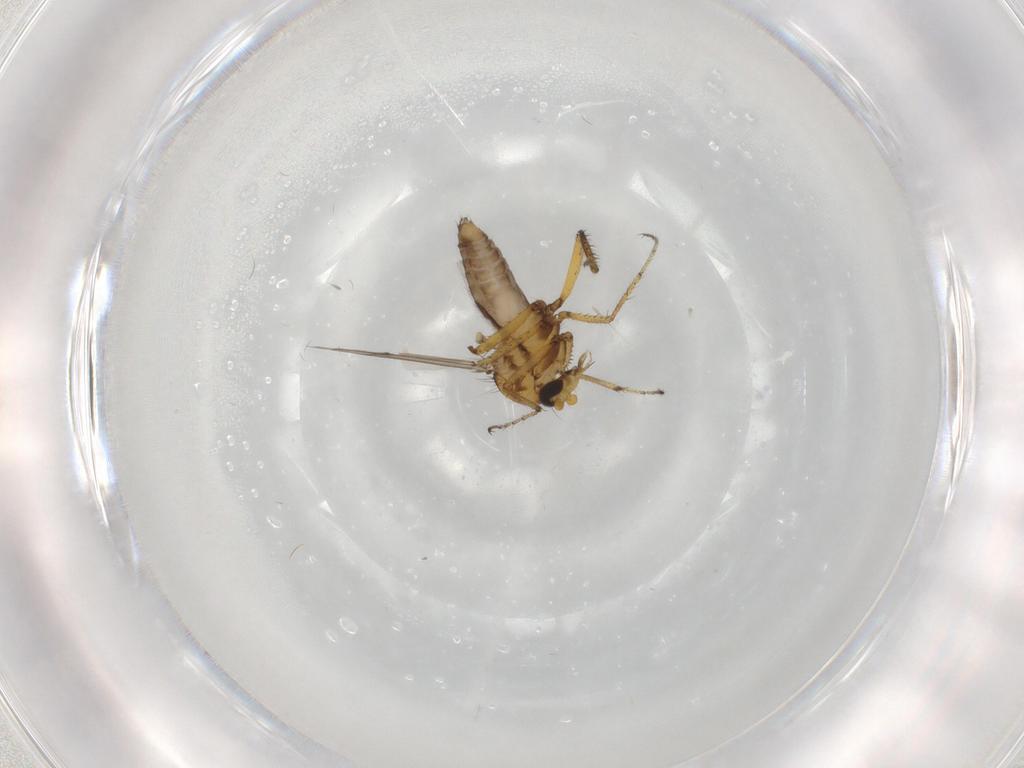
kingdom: Animalia
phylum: Arthropoda
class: Insecta
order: Diptera
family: Ceratopogonidae
